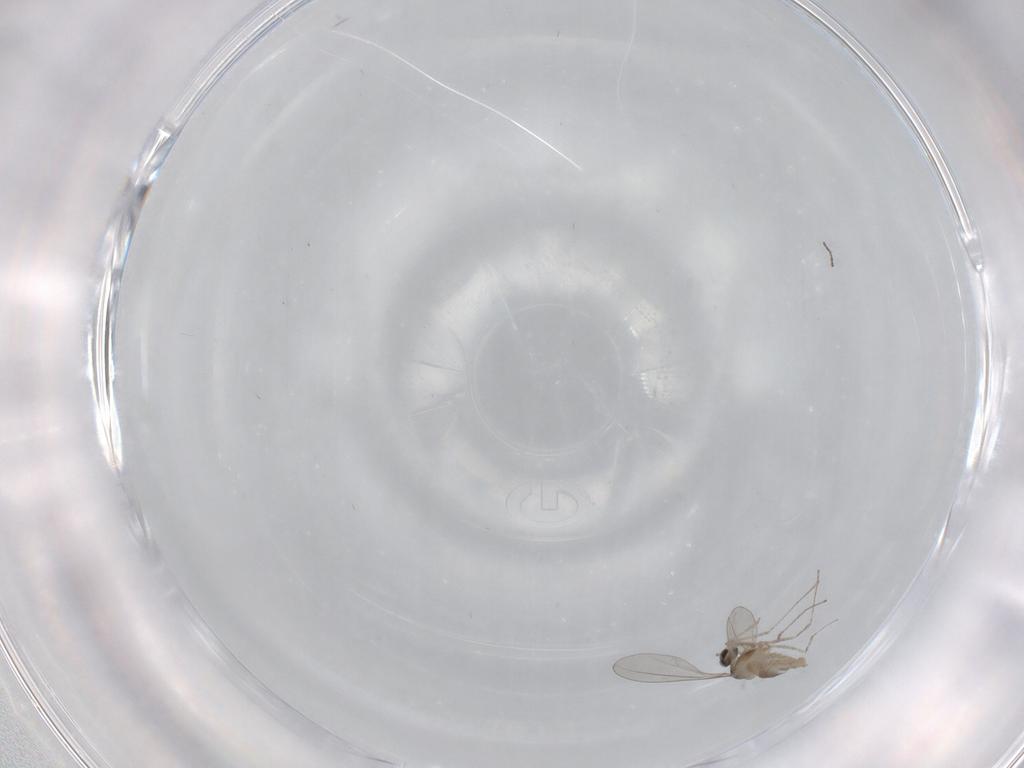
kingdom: Animalia
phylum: Arthropoda
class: Insecta
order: Diptera
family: Cecidomyiidae
